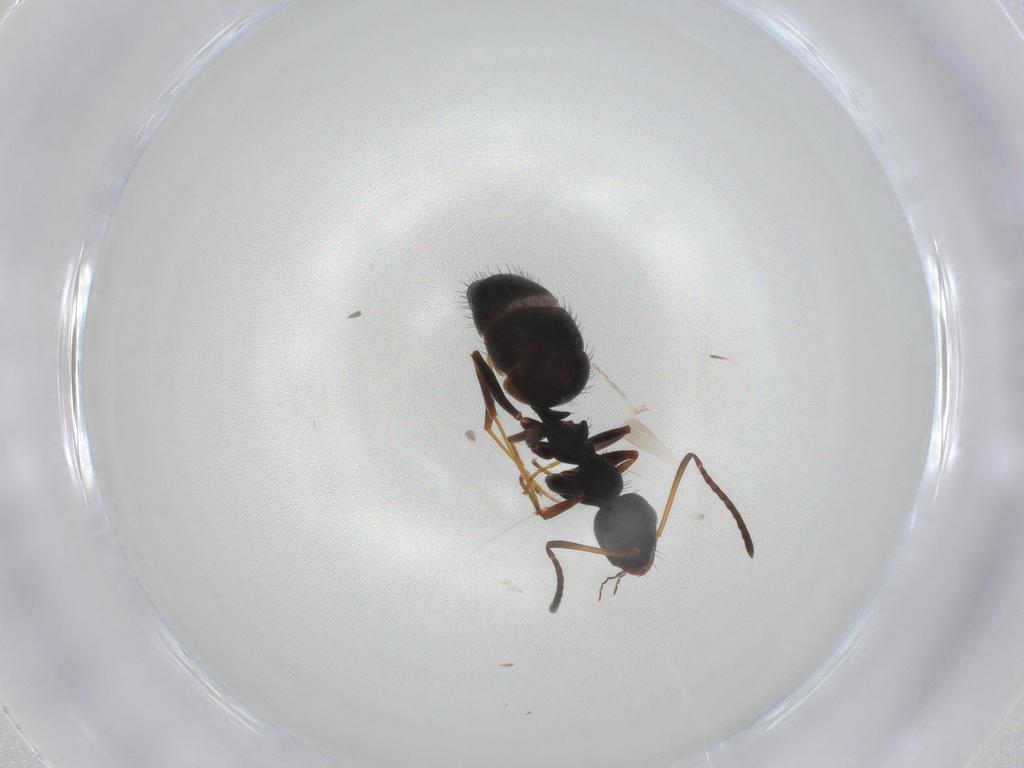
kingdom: Animalia
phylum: Arthropoda
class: Insecta
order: Hymenoptera
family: Formicidae
